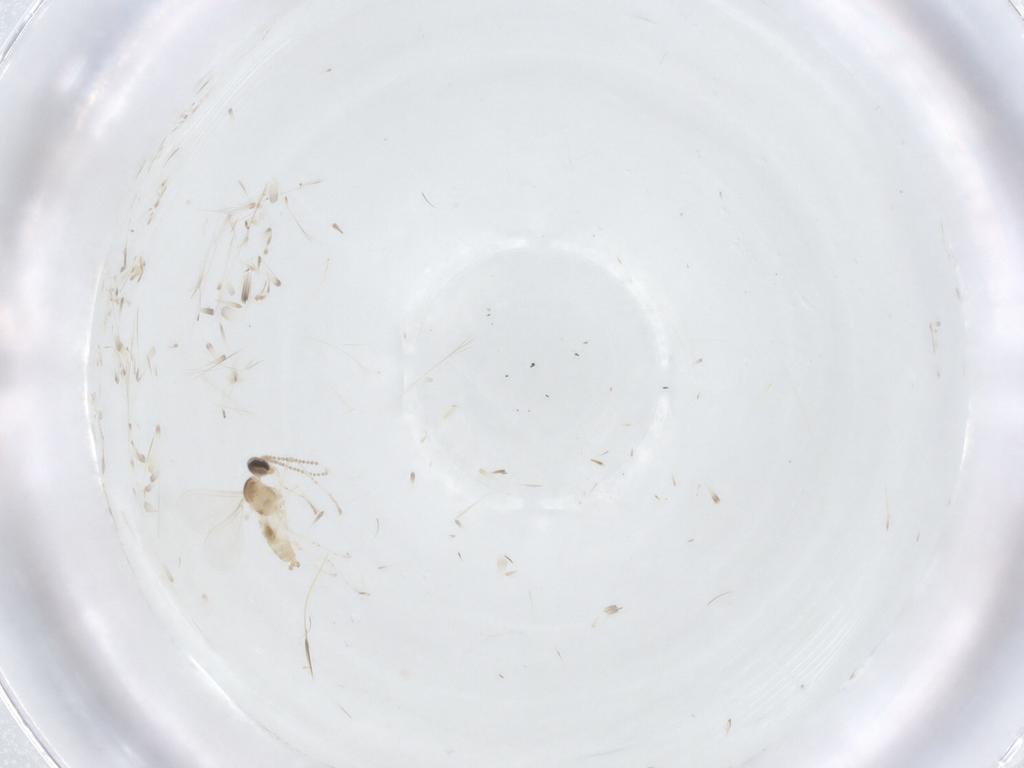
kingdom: Animalia
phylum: Arthropoda
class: Insecta
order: Diptera
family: Cecidomyiidae
